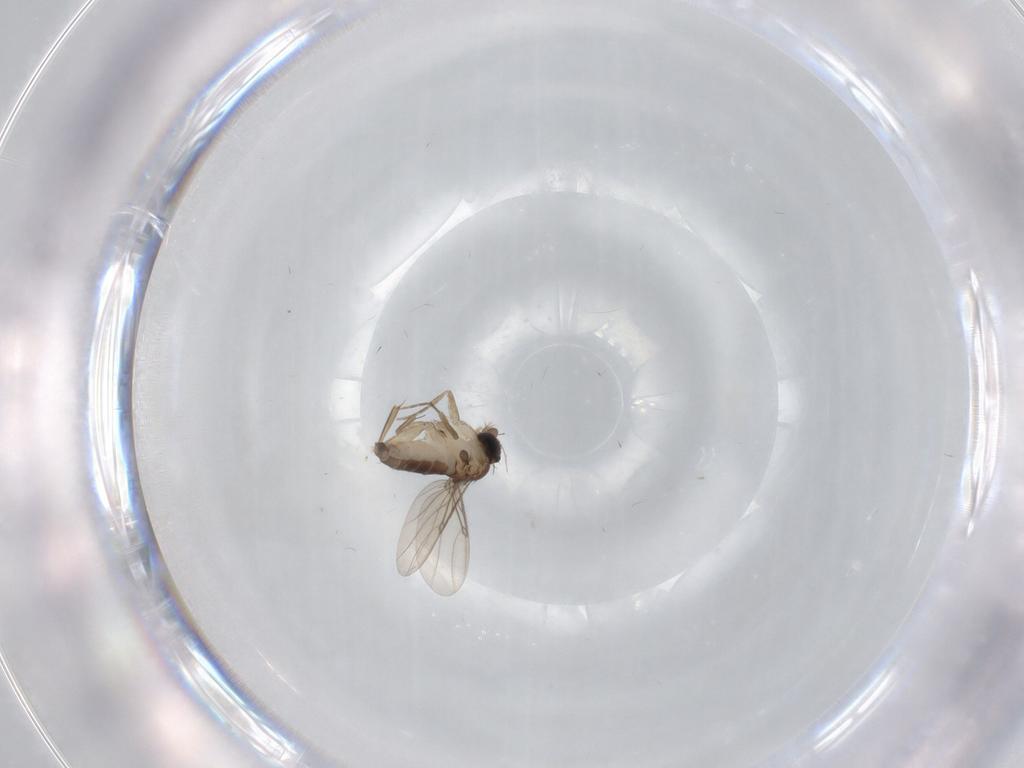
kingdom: Animalia
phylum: Arthropoda
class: Insecta
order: Diptera
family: Phoridae
